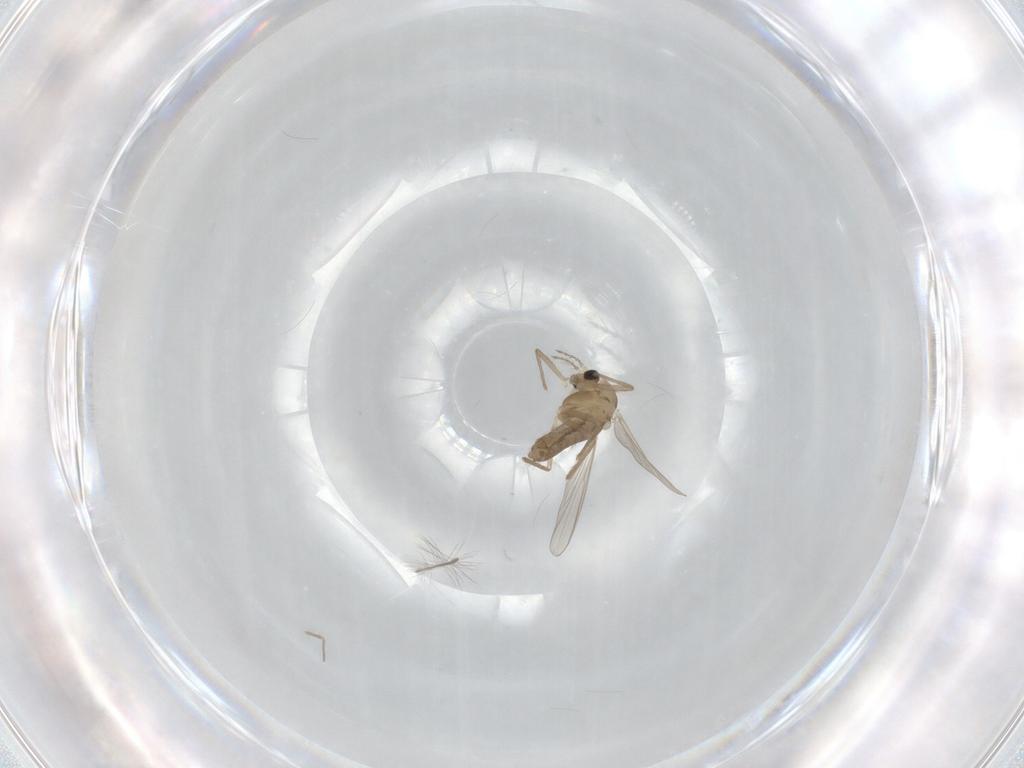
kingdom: Animalia
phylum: Arthropoda
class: Insecta
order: Diptera
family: Chironomidae
